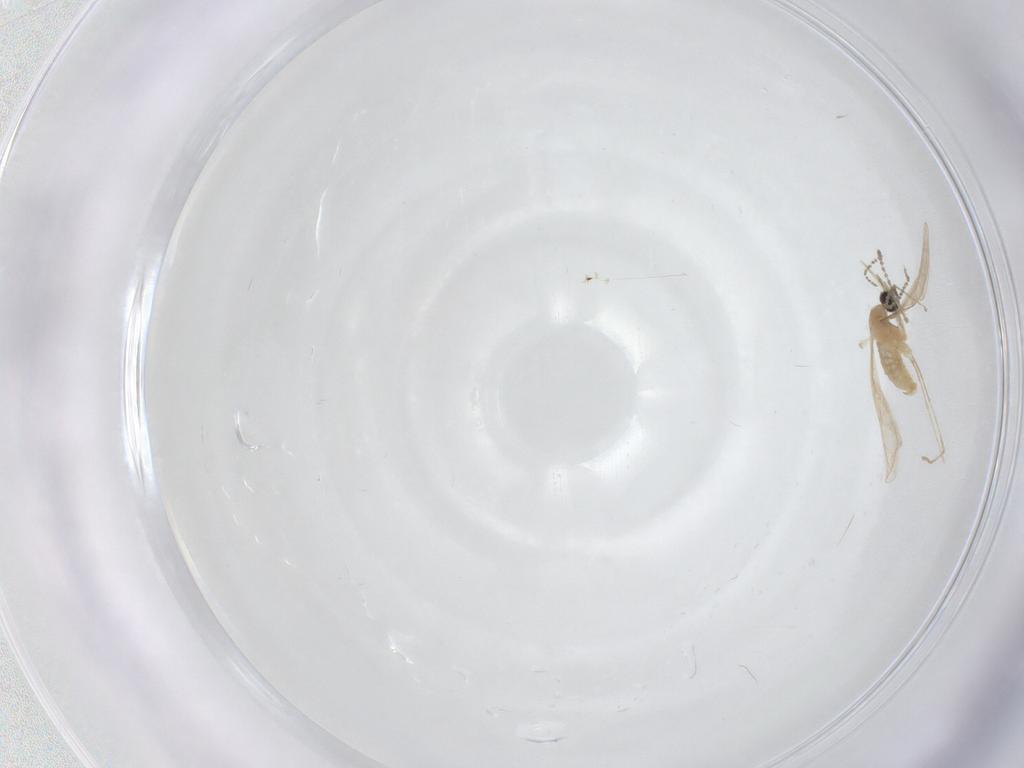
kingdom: Animalia
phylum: Arthropoda
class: Insecta
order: Diptera
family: Cecidomyiidae
